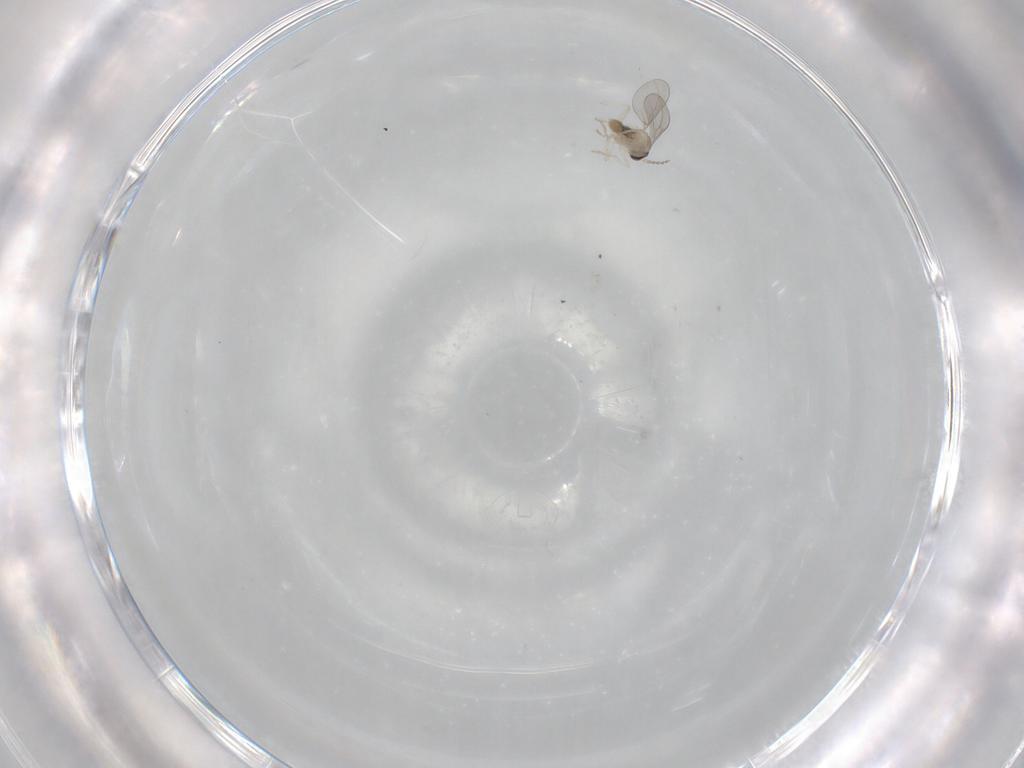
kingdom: Animalia
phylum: Arthropoda
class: Insecta
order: Diptera
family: Cecidomyiidae
